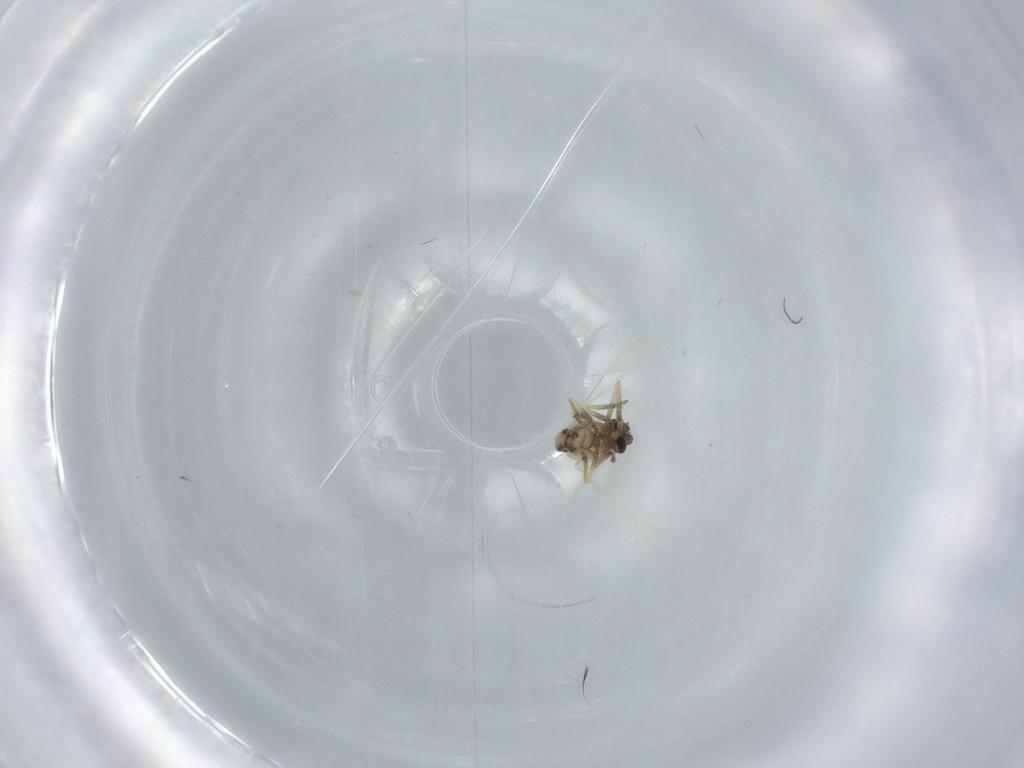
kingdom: Animalia
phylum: Arthropoda
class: Insecta
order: Diptera
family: Ceratopogonidae
